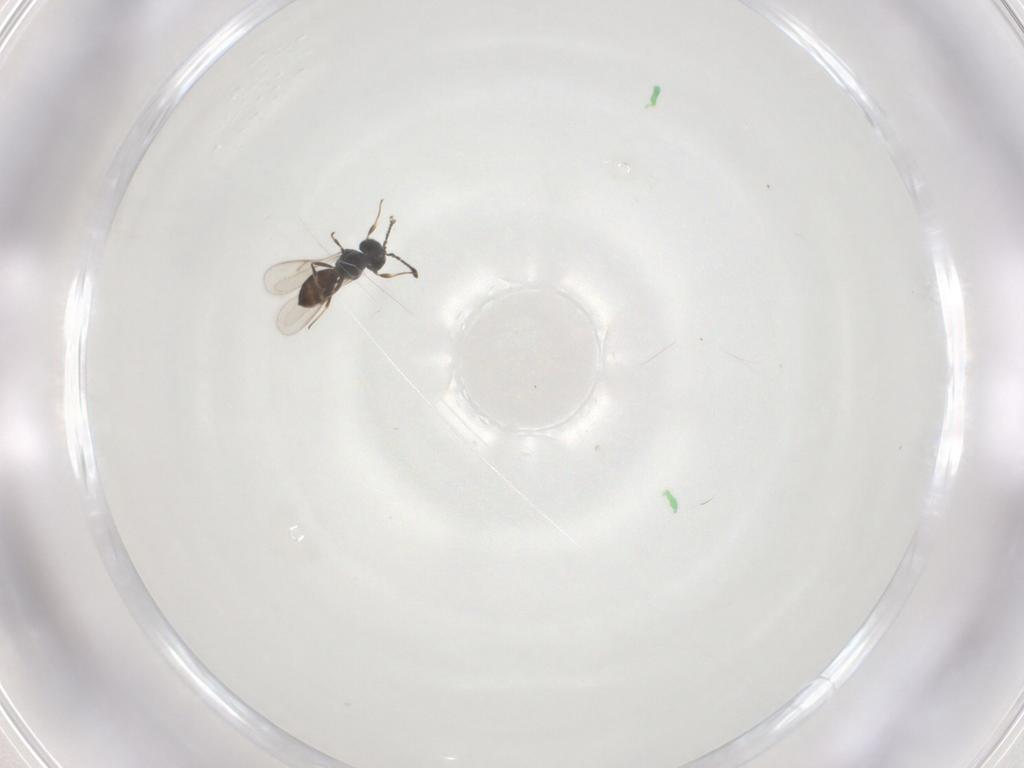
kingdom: Animalia
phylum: Arthropoda
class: Insecta
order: Hymenoptera
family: Scelionidae
